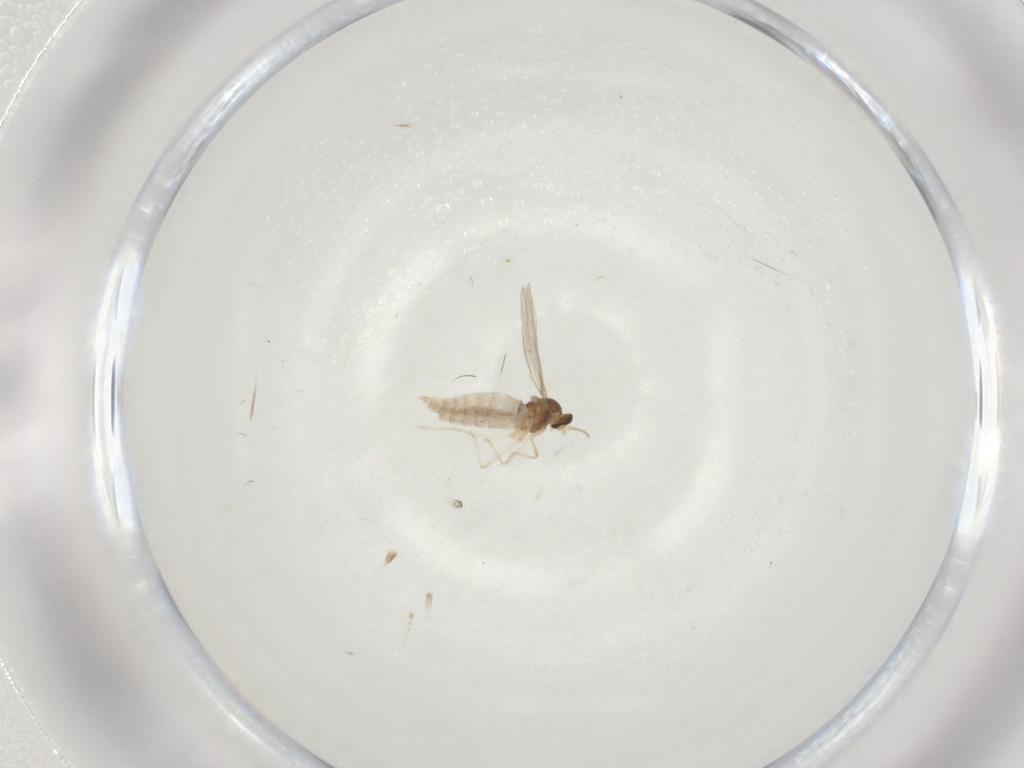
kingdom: Animalia
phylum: Arthropoda
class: Insecta
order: Diptera
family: Cecidomyiidae
